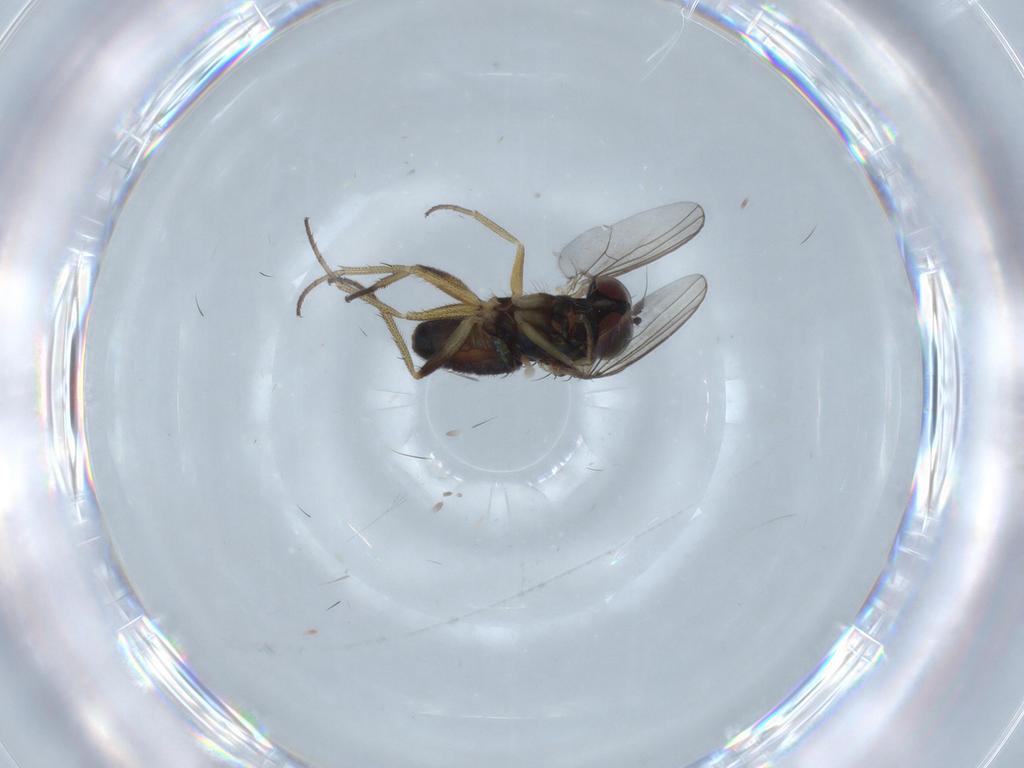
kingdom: Animalia
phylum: Arthropoda
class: Insecta
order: Diptera
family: Dolichopodidae
